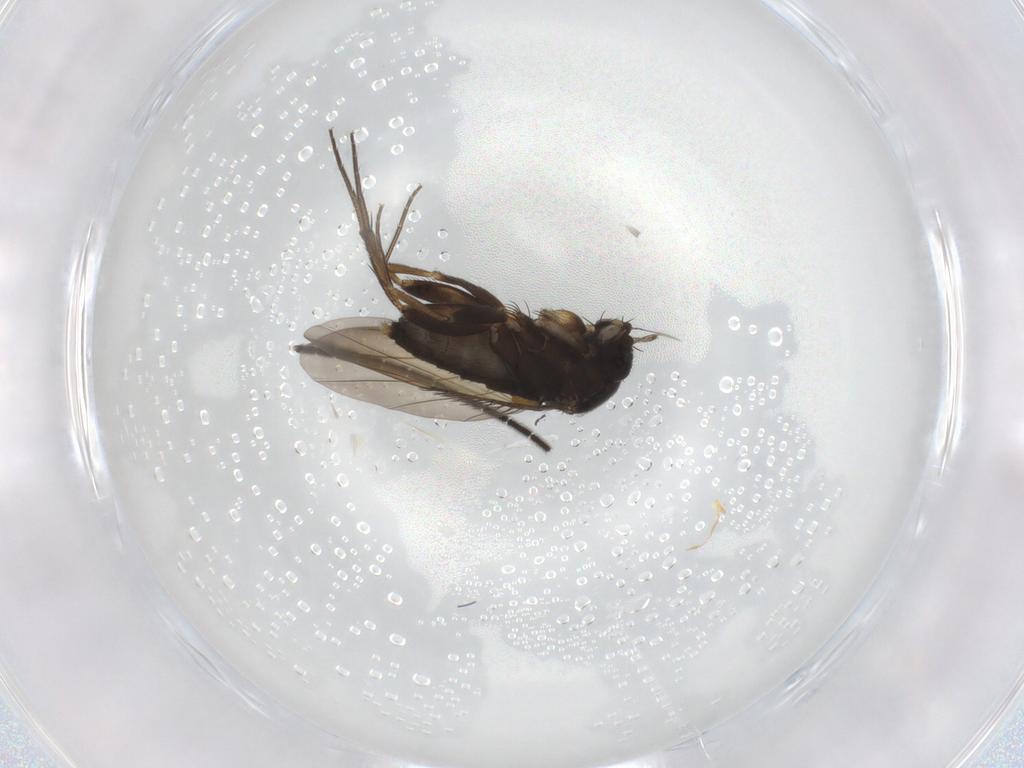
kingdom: Animalia
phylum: Arthropoda
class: Insecta
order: Diptera
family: Phoridae
